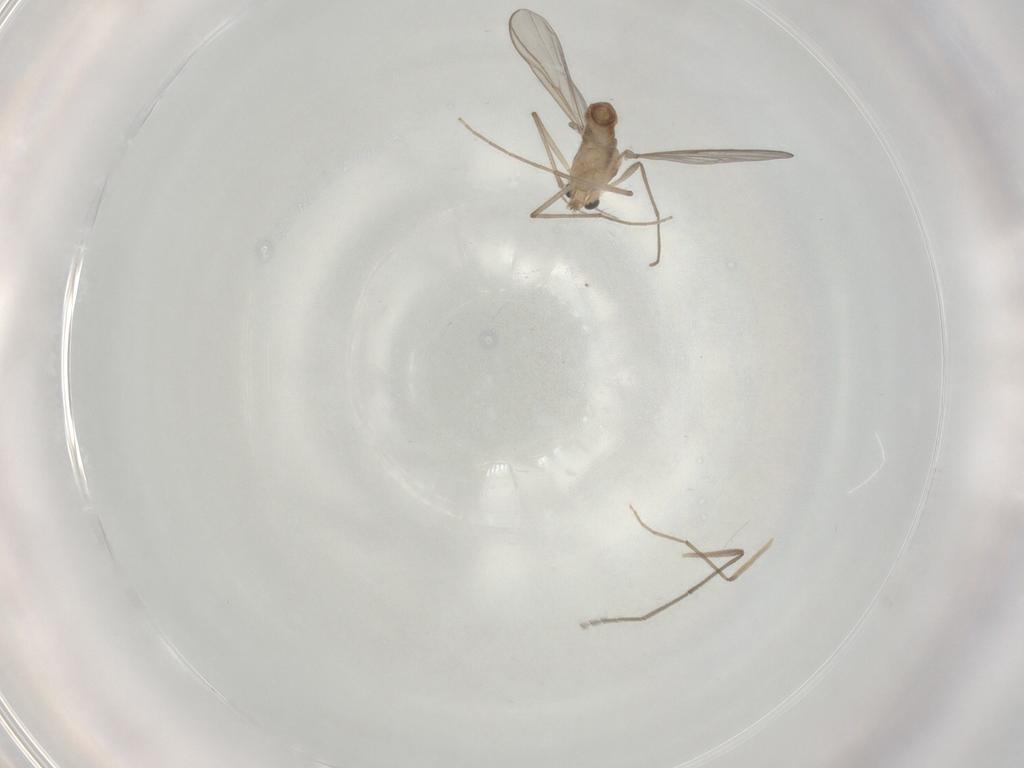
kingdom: Animalia
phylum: Arthropoda
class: Insecta
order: Diptera
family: Chironomidae
